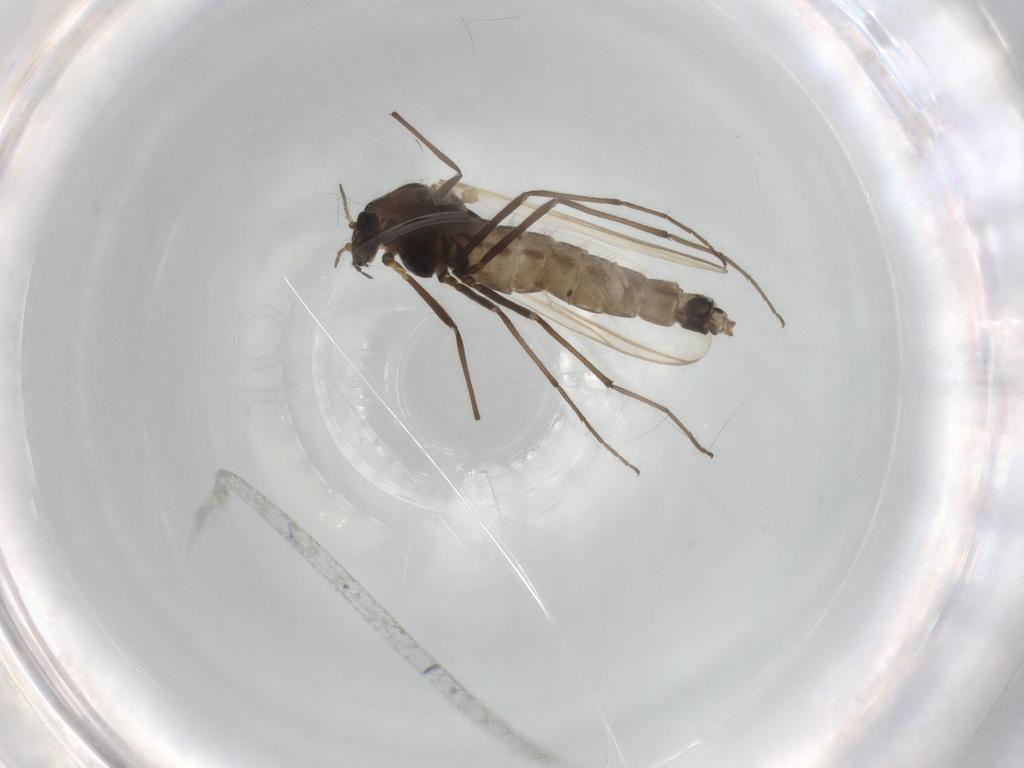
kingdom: Animalia
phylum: Arthropoda
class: Insecta
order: Diptera
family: Chironomidae
